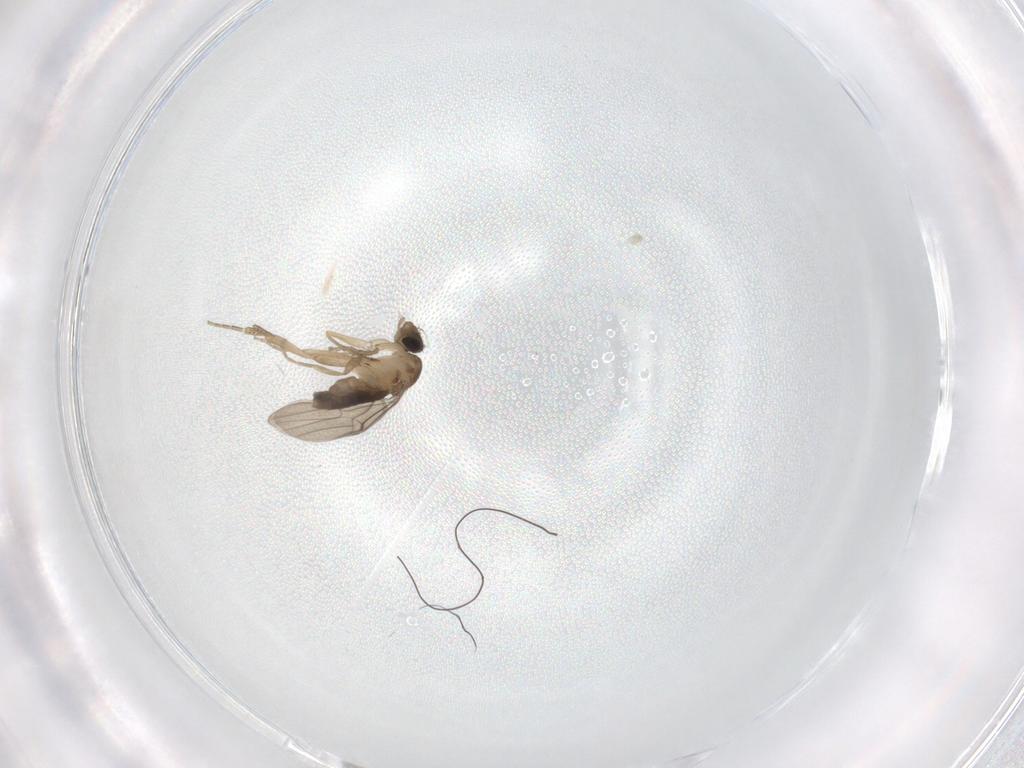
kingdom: Animalia
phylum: Arthropoda
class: Insecta
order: Diptera
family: Phoridae
